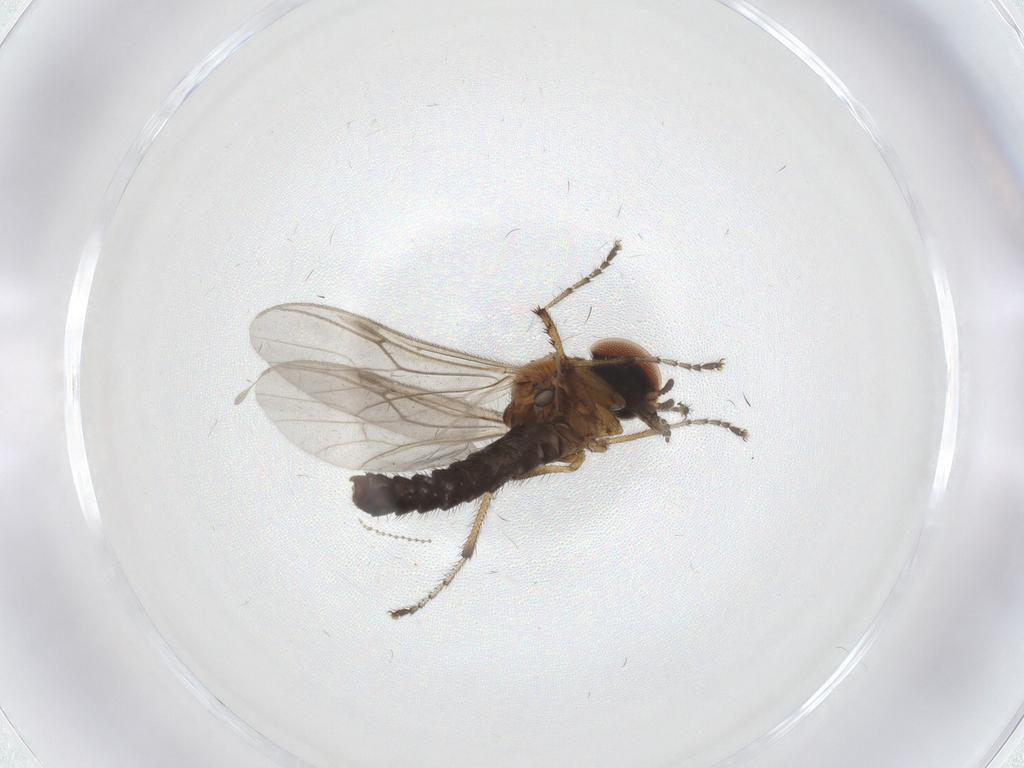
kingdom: Animalia
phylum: Arthropoda
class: Insecta
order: Diptera
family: Bibionidae
